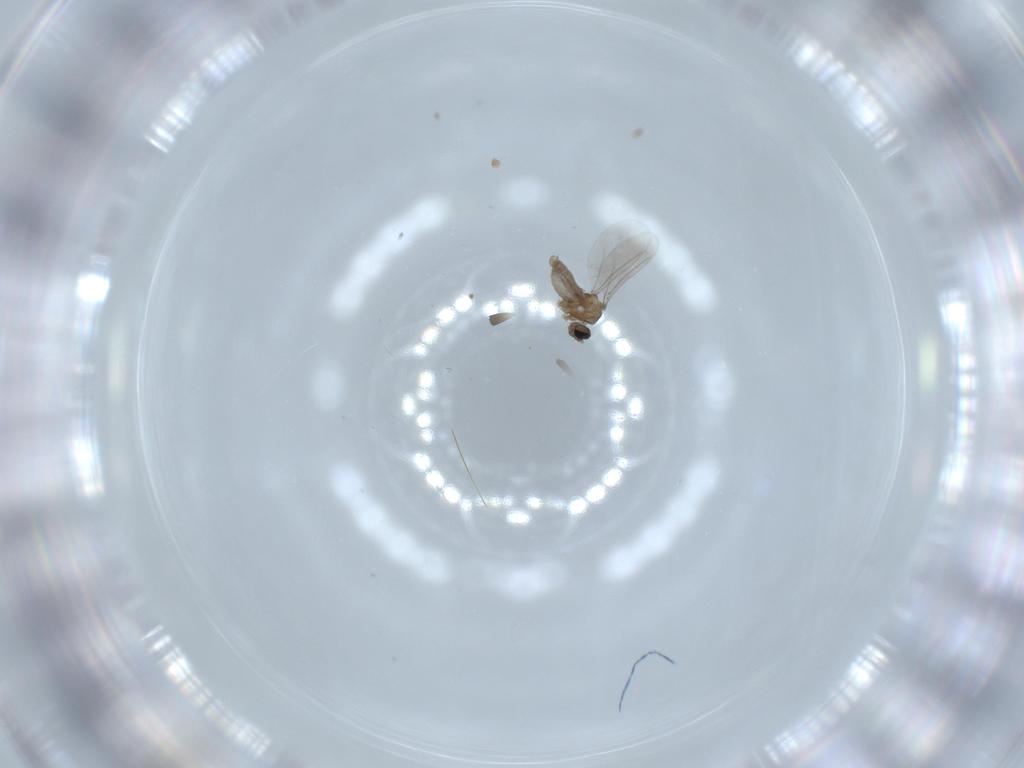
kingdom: Animalia
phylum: Arthropoda
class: Insecta
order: Diptera
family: Cecidomyiidae
